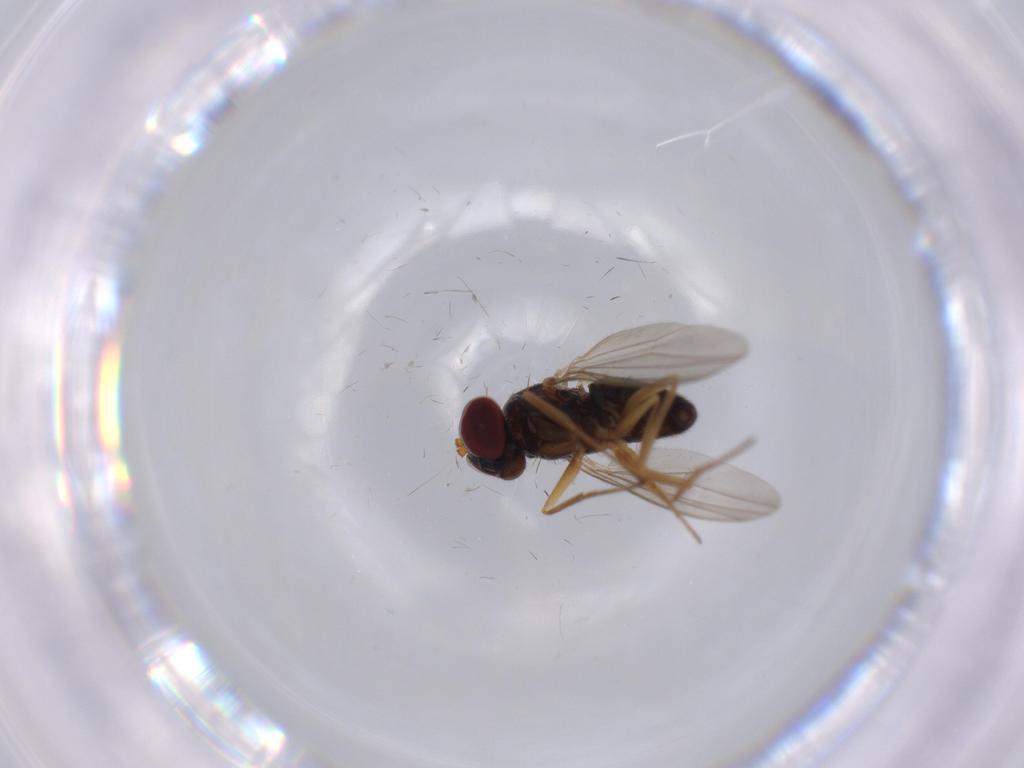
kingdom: Animalia
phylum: Arthropoda
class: Insecta
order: Diptera
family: Dolichopodidae
